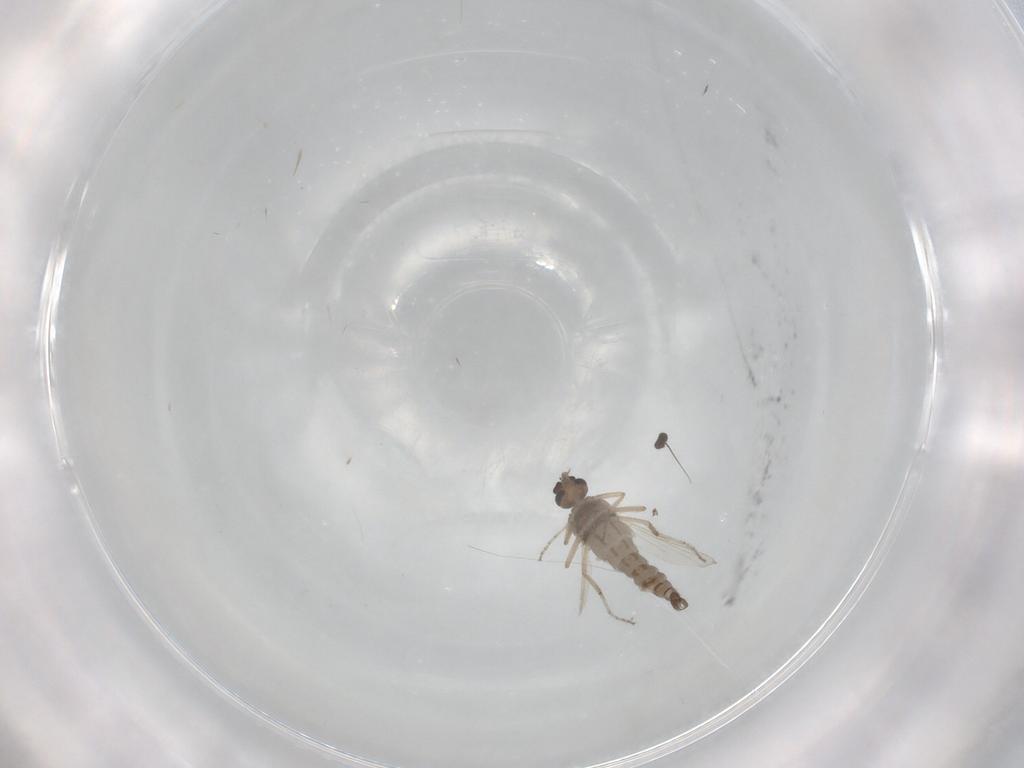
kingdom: Animalia
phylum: Arthropoda
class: Insecta
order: Diptera
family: Ceratopogonidae
